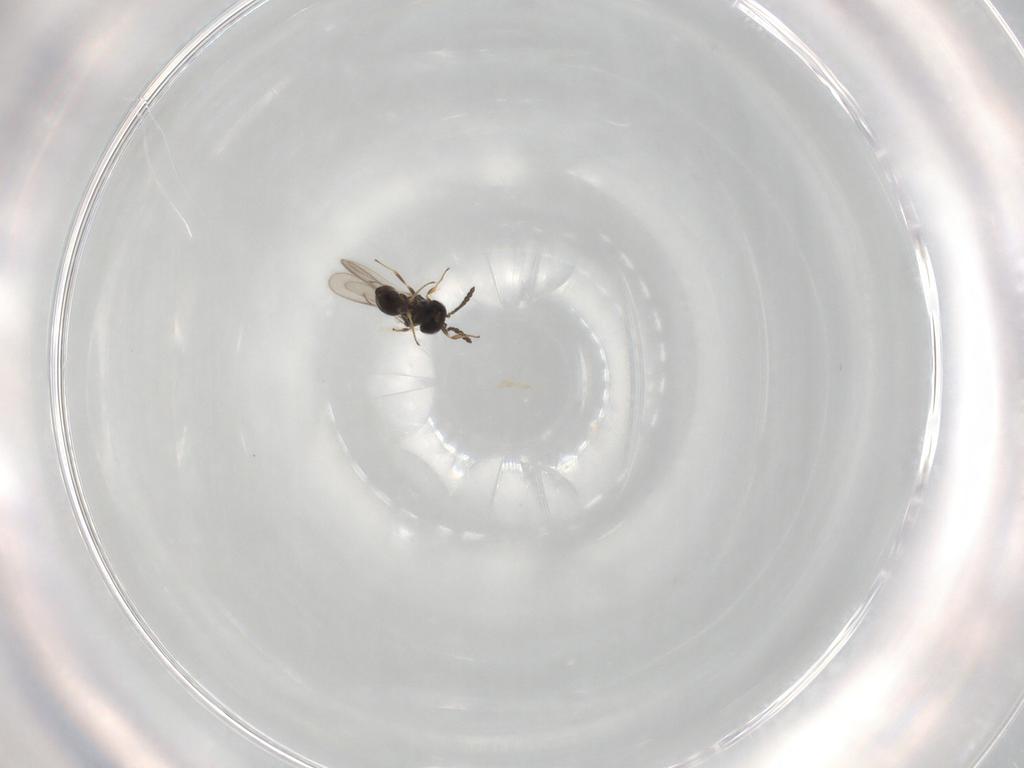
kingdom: Animalia
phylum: Arthropoda
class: Insecta
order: Hymenoptera
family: Scelionidae
